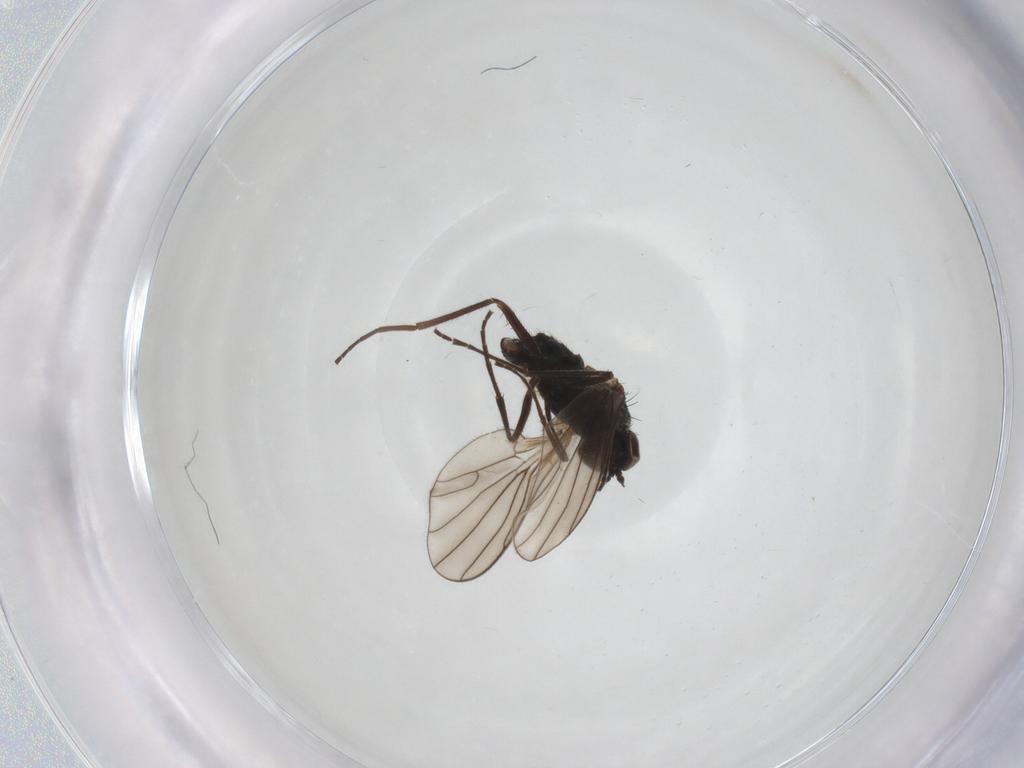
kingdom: Animalia
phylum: Arthropoda
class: Insecta
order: Diptera
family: Dolichopodidae
